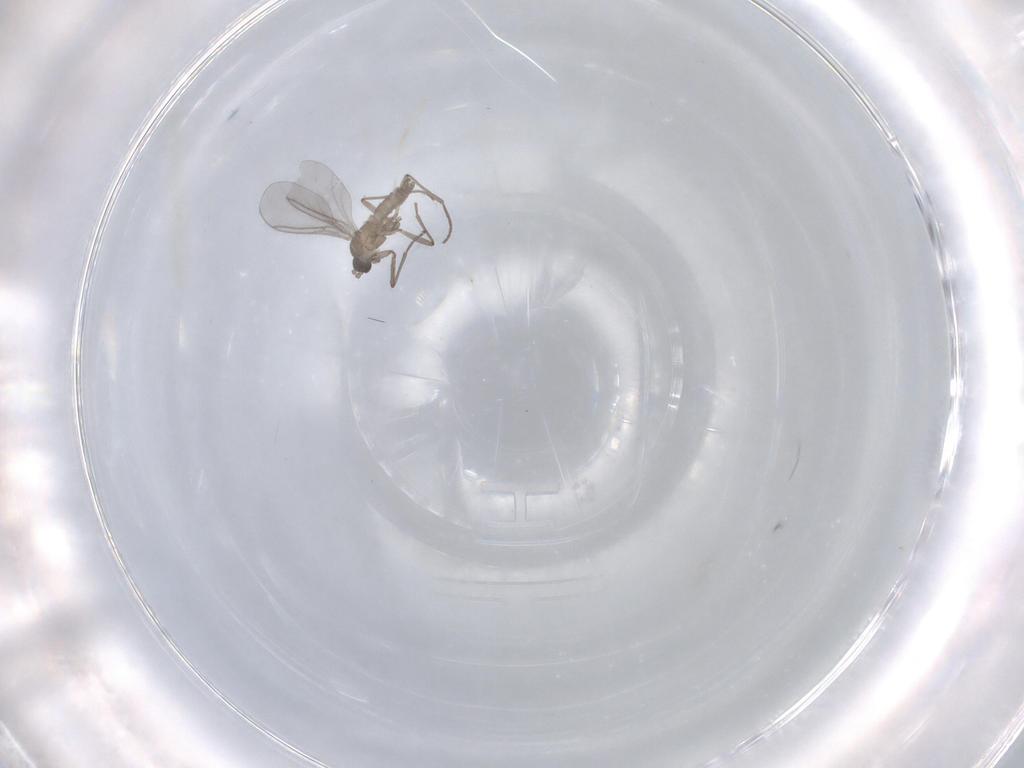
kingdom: Animalia
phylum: Arthropoda
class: Insecta
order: Diptera
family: Sciaridae
